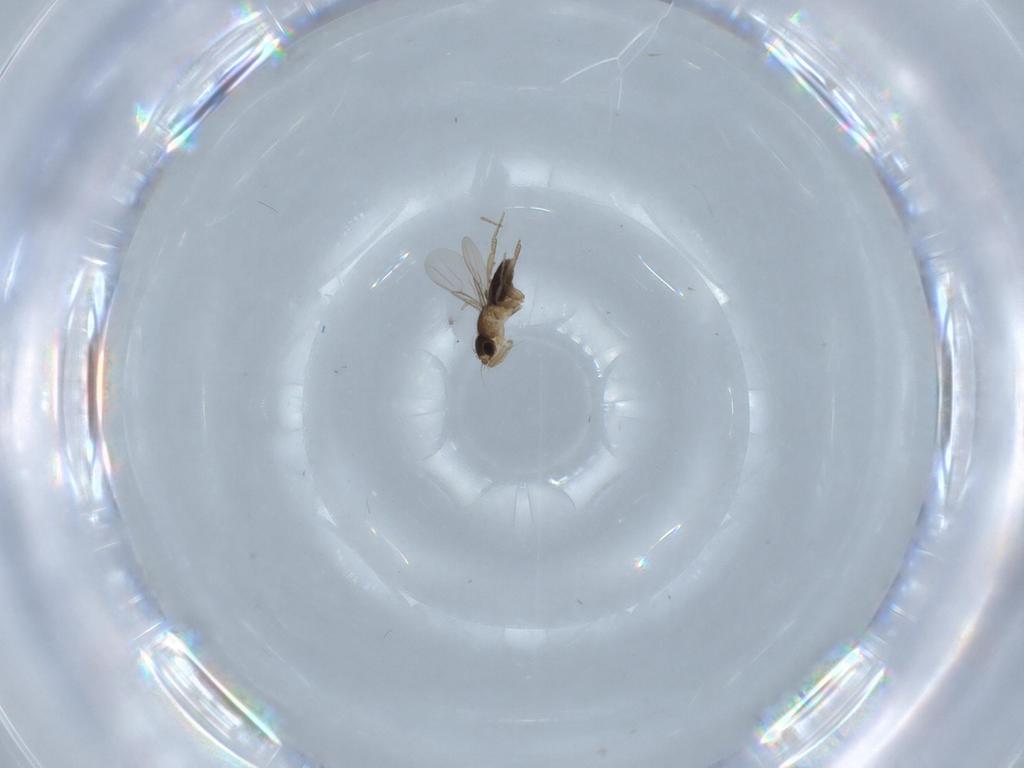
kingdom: Animalia
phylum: Arthropoda
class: Insecta
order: Diptera
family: Phoridae
